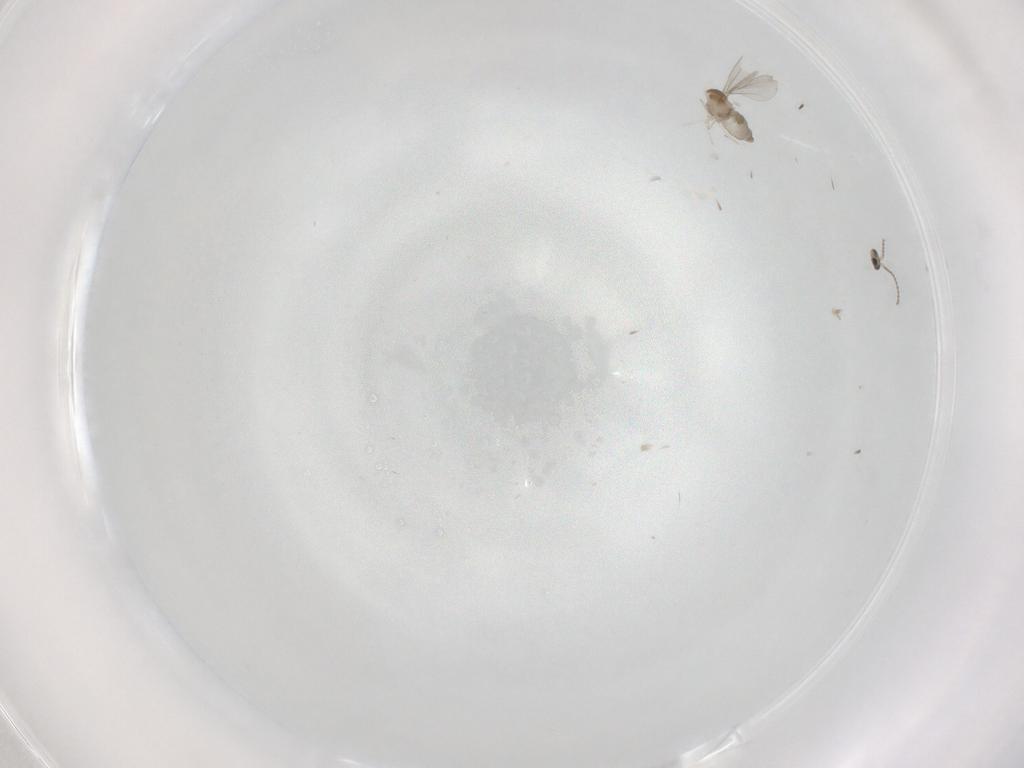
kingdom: Animalia
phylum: Arthropoda
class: Insecta
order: Diptera
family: Cecidomyiidae
